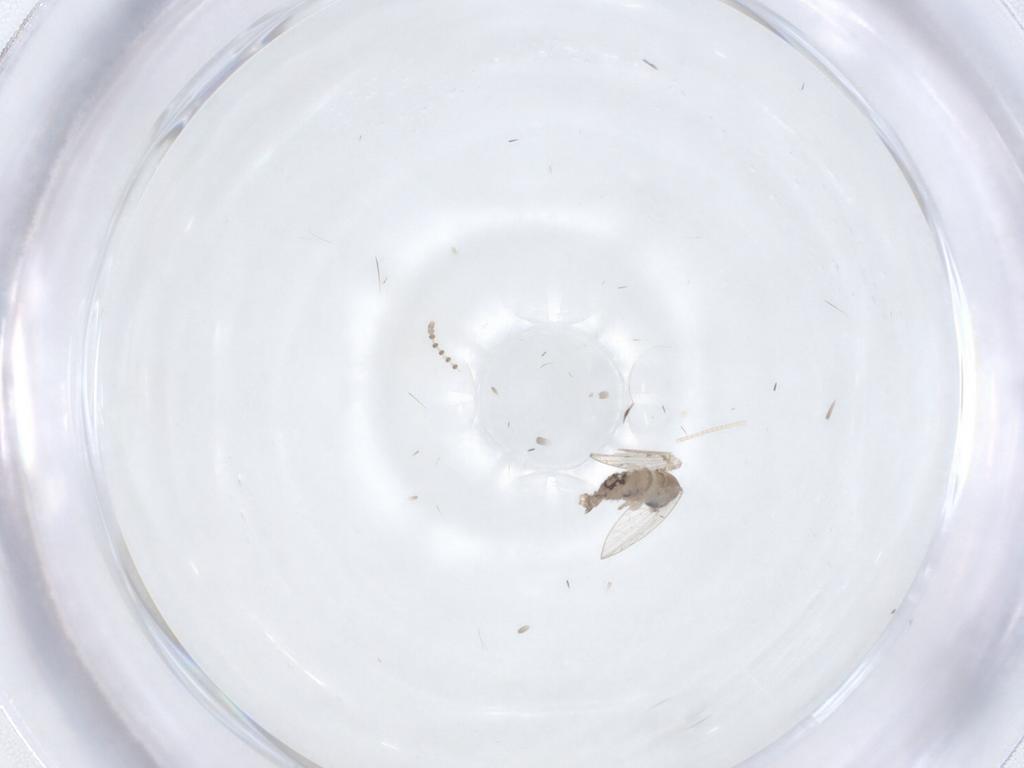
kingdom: Animalia
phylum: Arthropoda
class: Insecta
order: Diptera
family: Psychodidae
